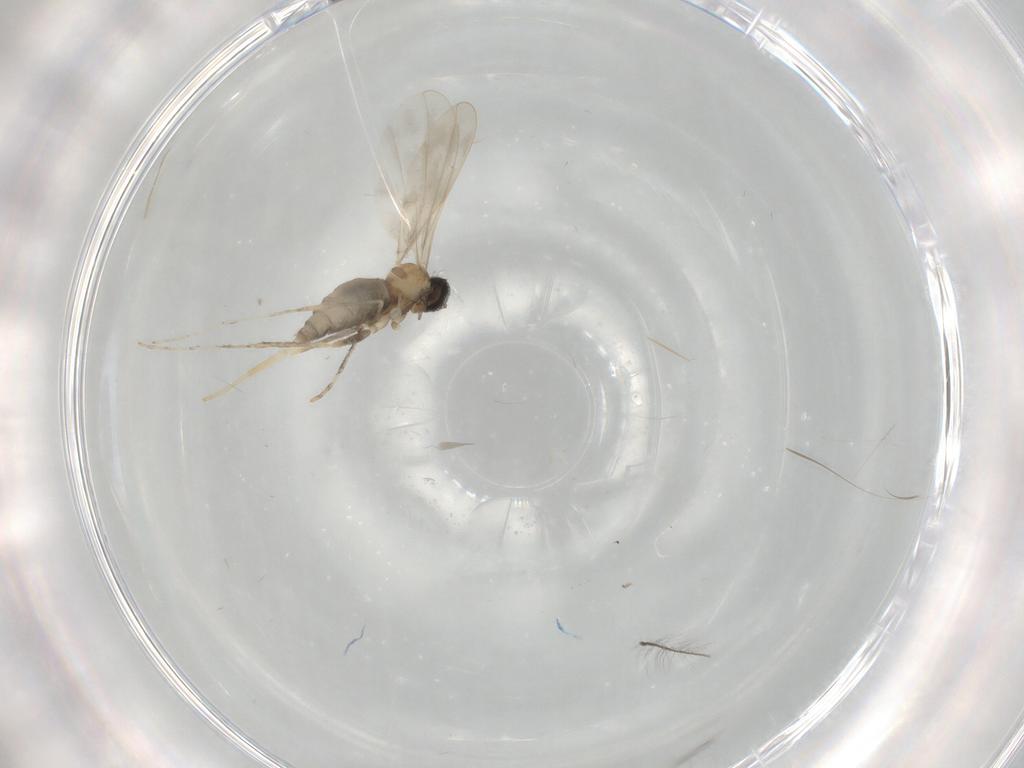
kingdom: Animalia
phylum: Arthropoda
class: Insecta
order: Diptera
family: Cecidomyiidae
